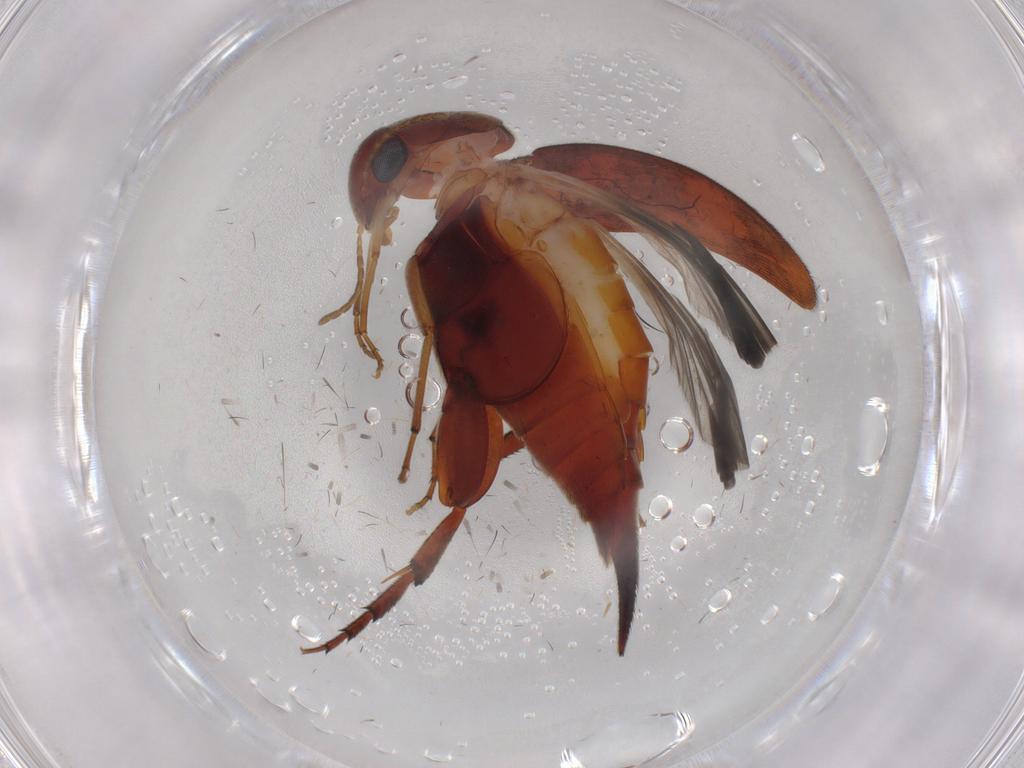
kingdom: Animalia
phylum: Arthropoda
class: Insecta
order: Coleoptera
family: Mordellidae
